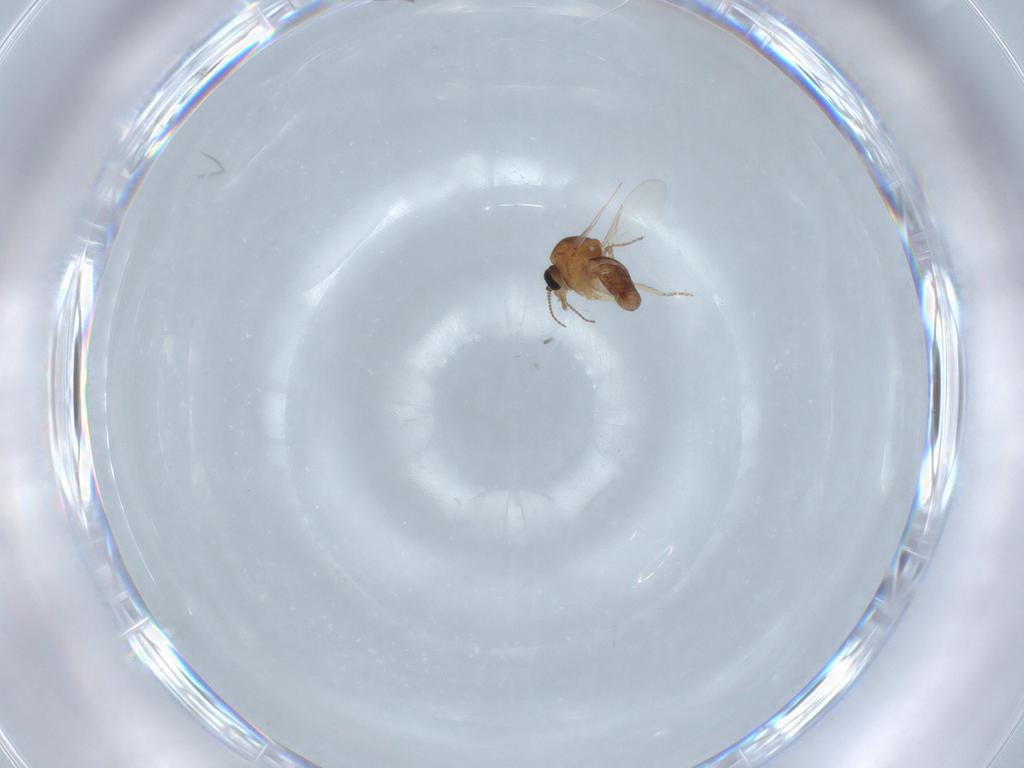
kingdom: Animalia
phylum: Arthropoda
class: Insecta
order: Diptera
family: Ceratopogonidae
